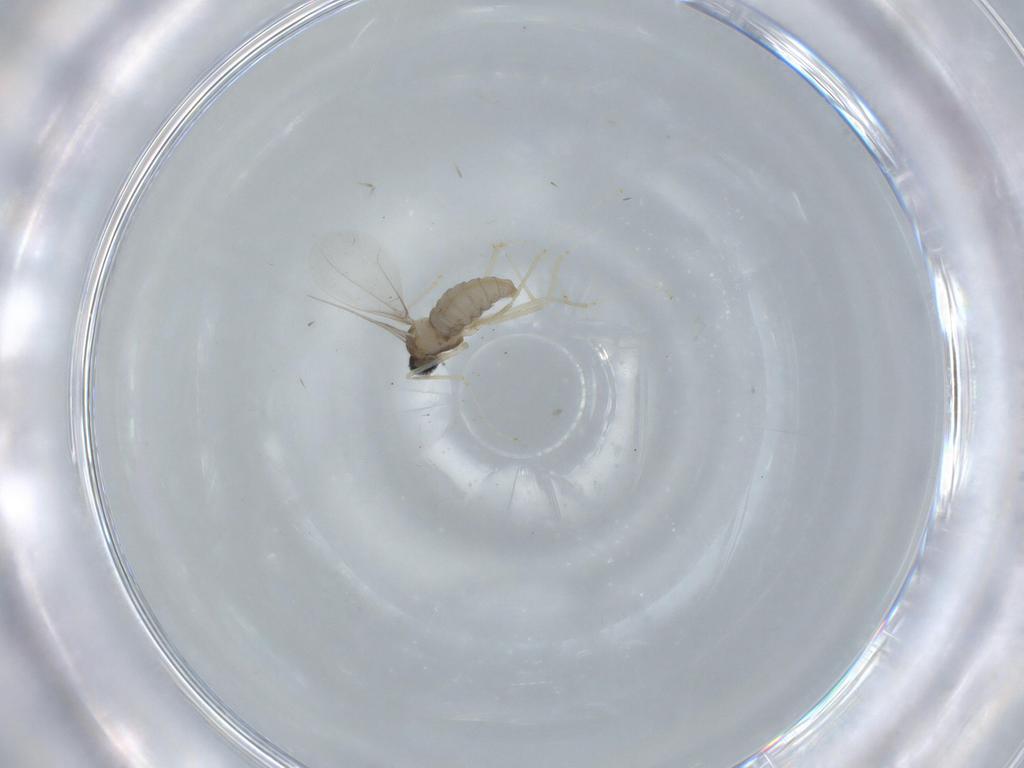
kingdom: Animalia
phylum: Arthropoda
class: Insecta
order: Diptera
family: Cecidomyiidae
